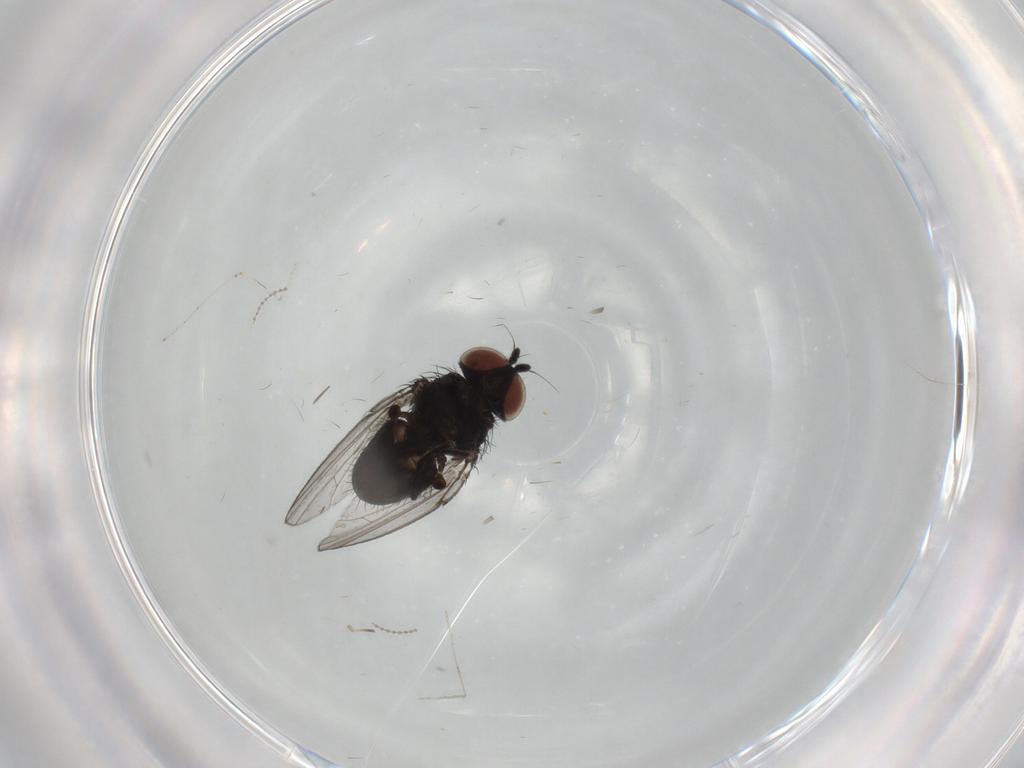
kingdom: Animalia
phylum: Arthropoda
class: Insecta
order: Diptera
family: Milichiidae
